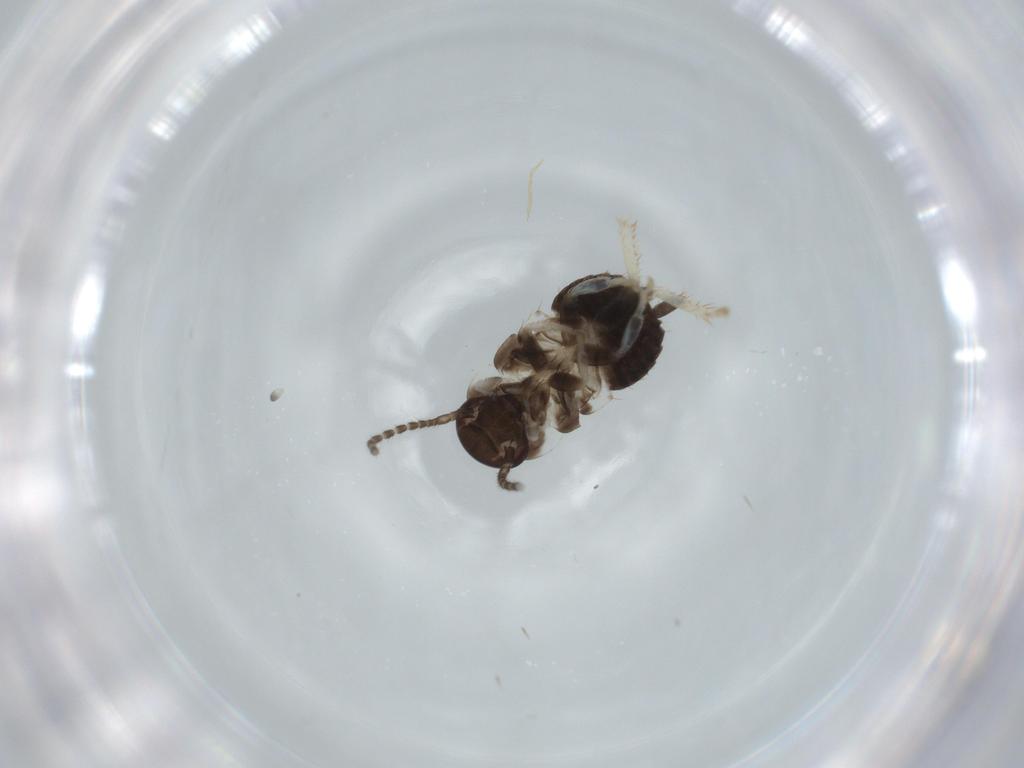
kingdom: Animalia
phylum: Arthropoda
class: Insecta
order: Blattodea
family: Ectobiidae
